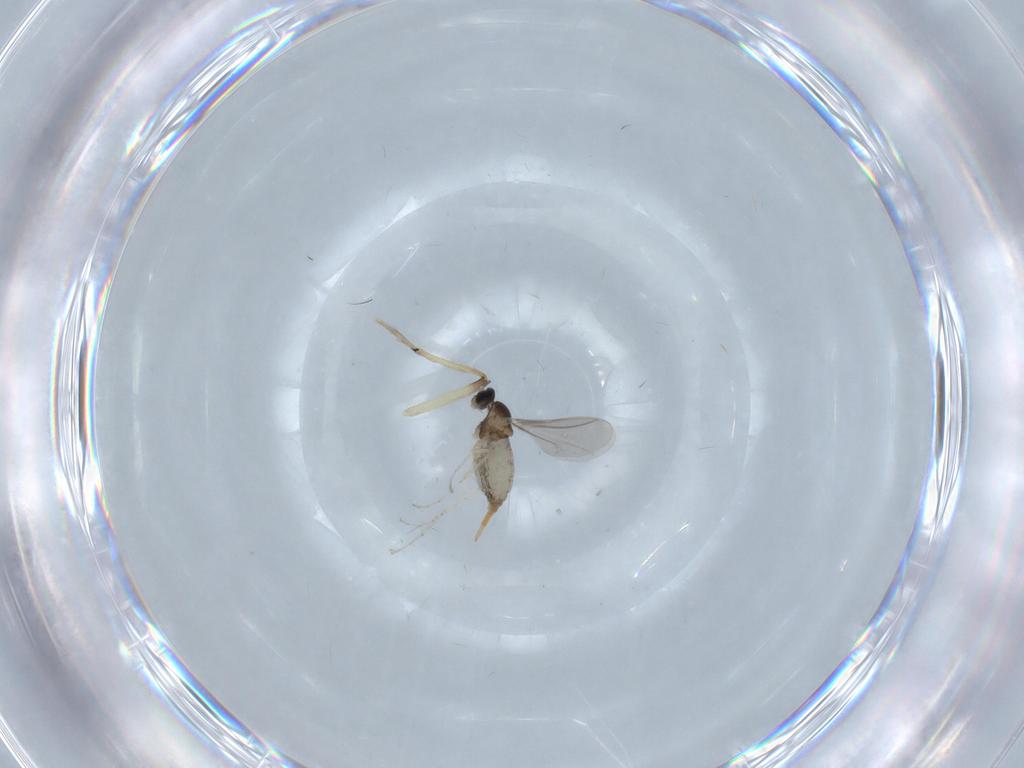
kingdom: Animalia
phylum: Arthropoda
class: Insecta
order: Diptera
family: Cecidomyiidae
